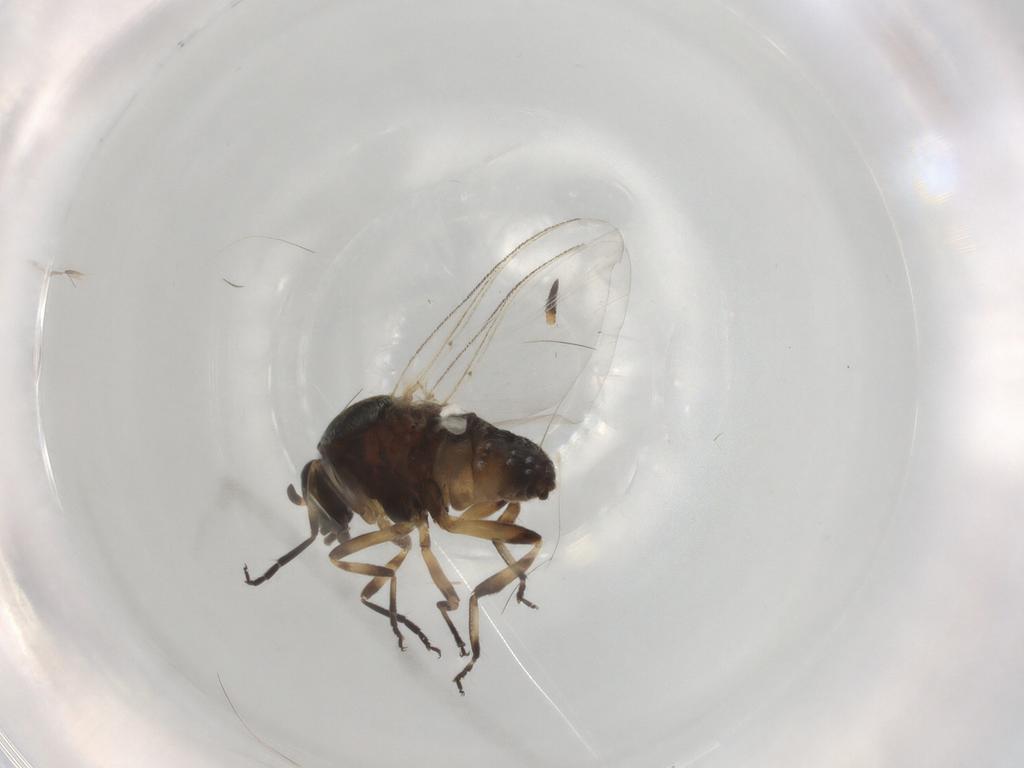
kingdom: Animalia
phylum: Arthropoda
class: Insecta
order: Diptera
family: Chironomidae
